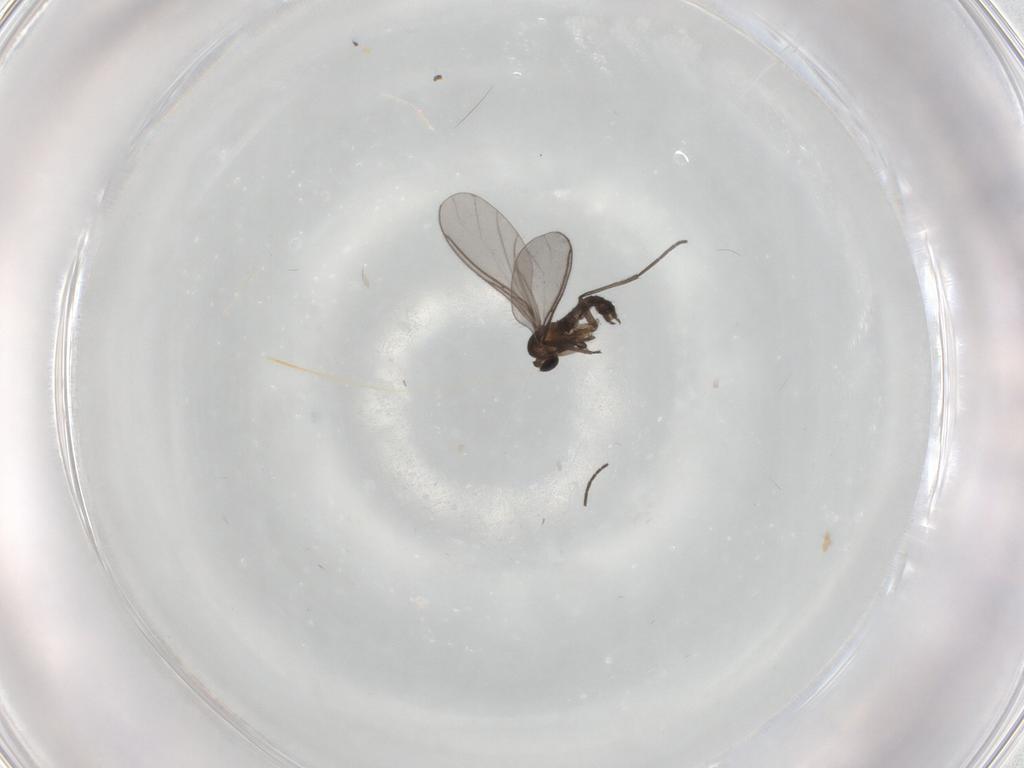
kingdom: Animalia
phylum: Arthropoda
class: Insecta
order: Diptera
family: Sciaridae
